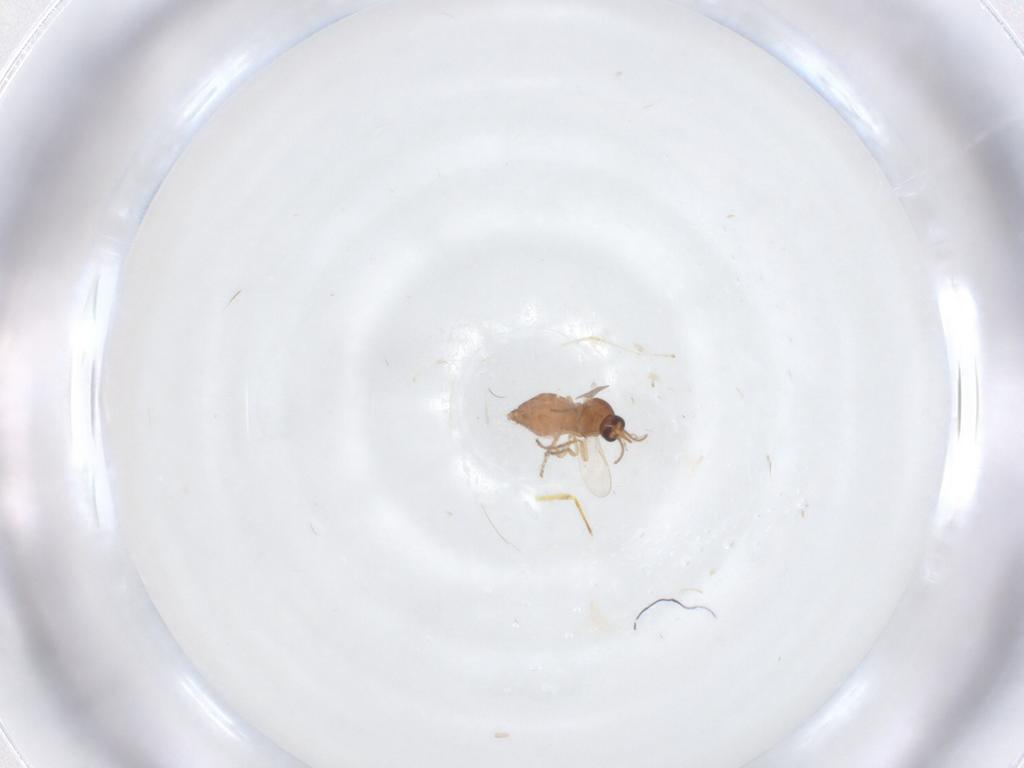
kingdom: Animalia
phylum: Arthropoda
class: Insecta
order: Diptera
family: Ceratopogonidae
